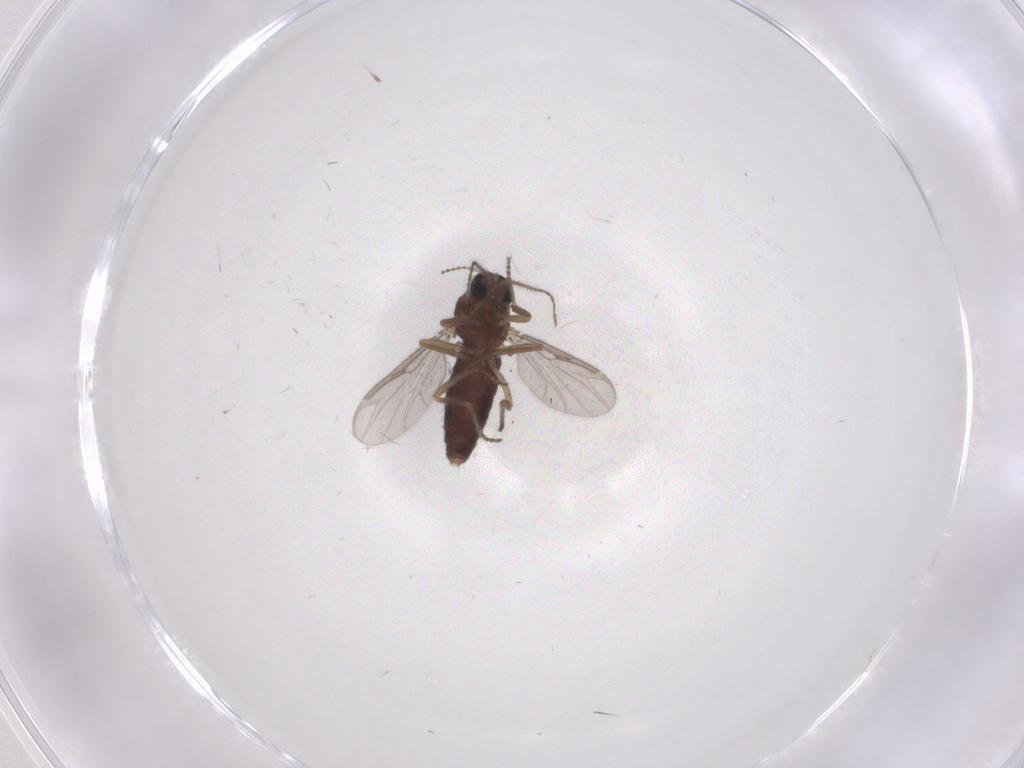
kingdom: Animalia
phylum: Arthropoda
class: Insecta
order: Diptera
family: Ceratopogonidae
